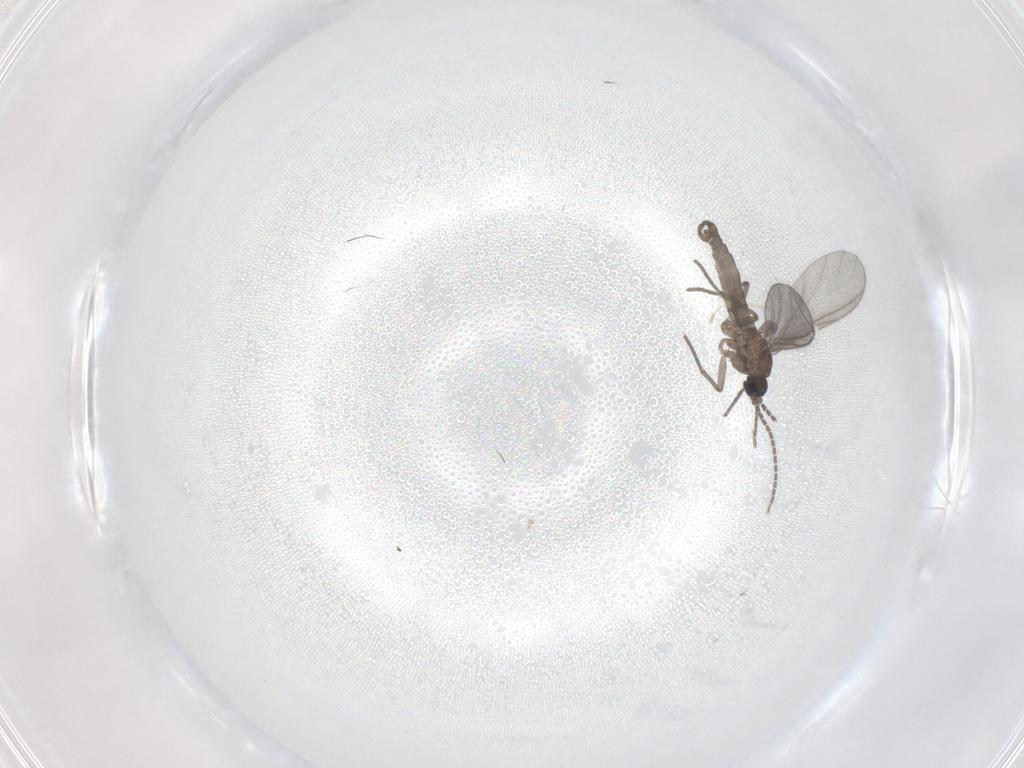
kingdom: Animalia
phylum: Arthropoda
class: Insecta
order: Diptera
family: Sciaridae
